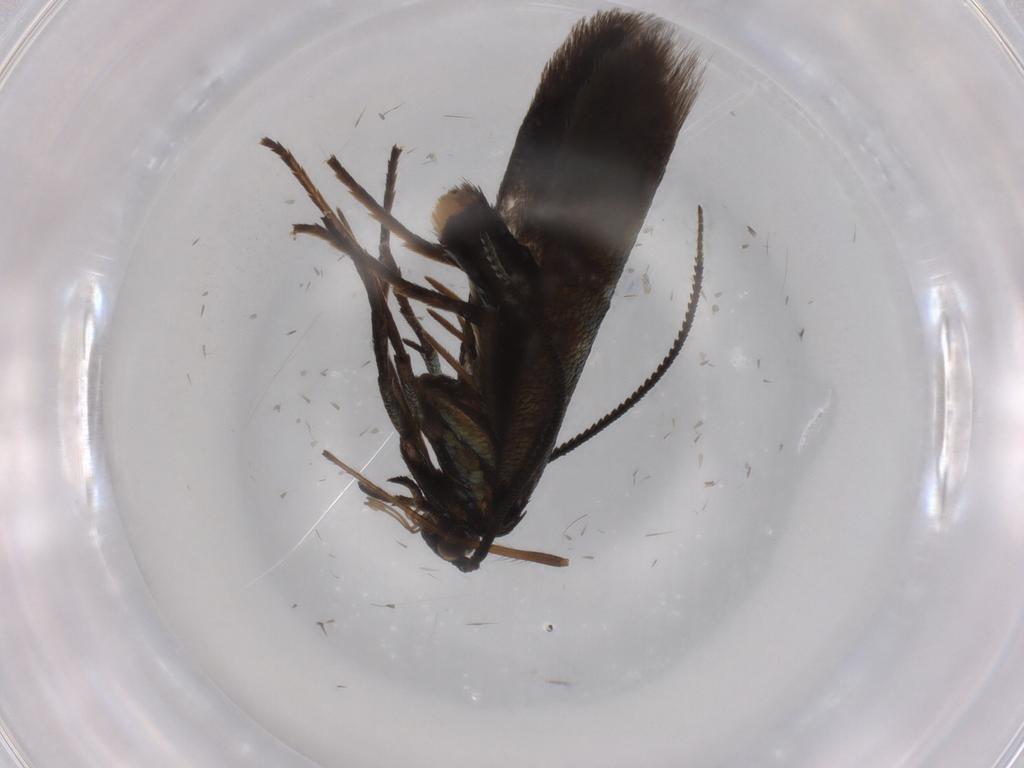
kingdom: Animalia
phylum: Arthropoda
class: Insecta
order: Lepidoptera
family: Argyresthiidae
